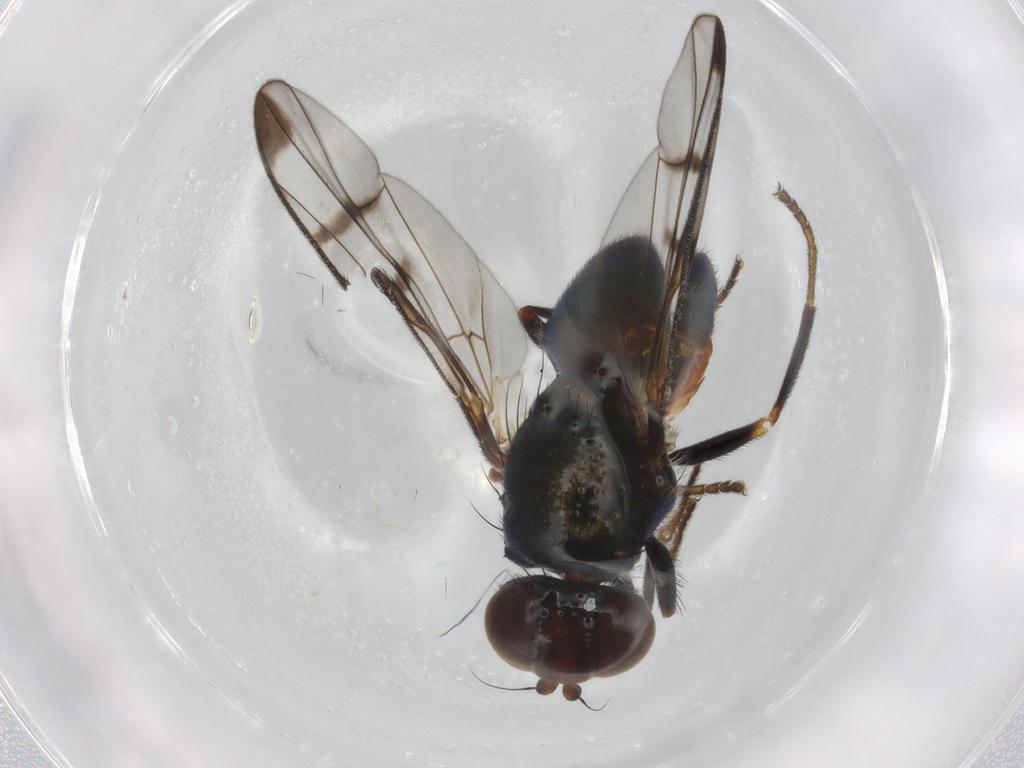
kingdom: Animalia
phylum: Arthropoda
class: Insecta
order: Diptera
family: Platystomatidae
